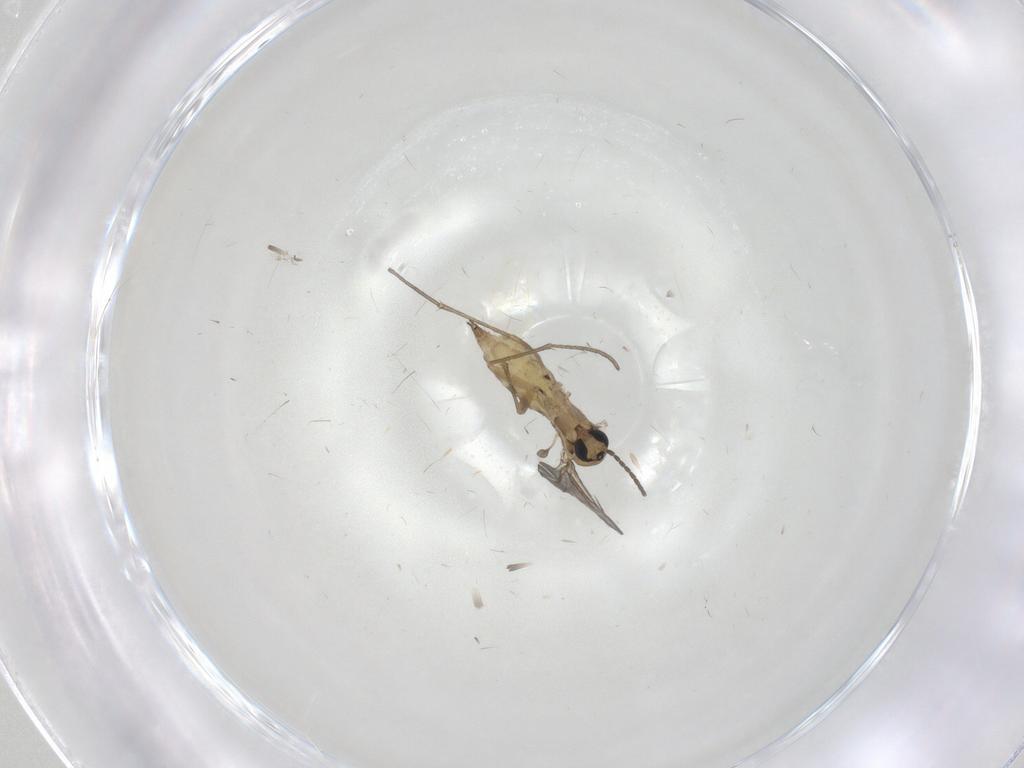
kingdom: Animalia
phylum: Arthropoda
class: Insecta
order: Diptera
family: Sciaridae
